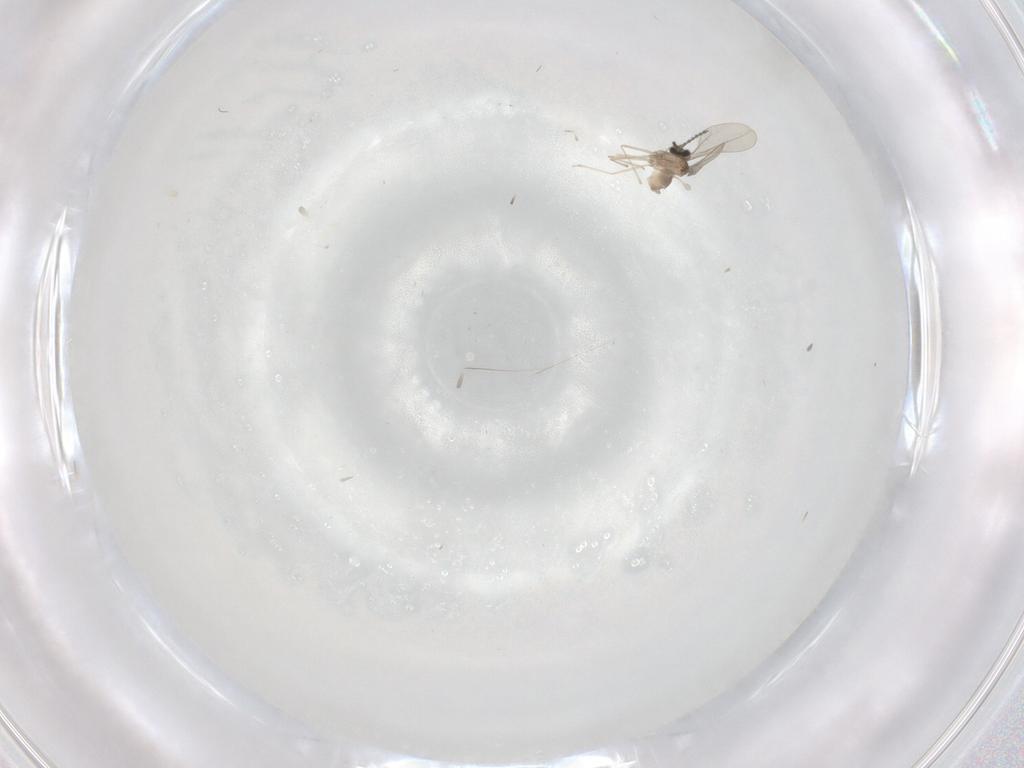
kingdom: Animalia
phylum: Arthropoda
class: Insecta
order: Diptera
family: Cecidomyiidae
